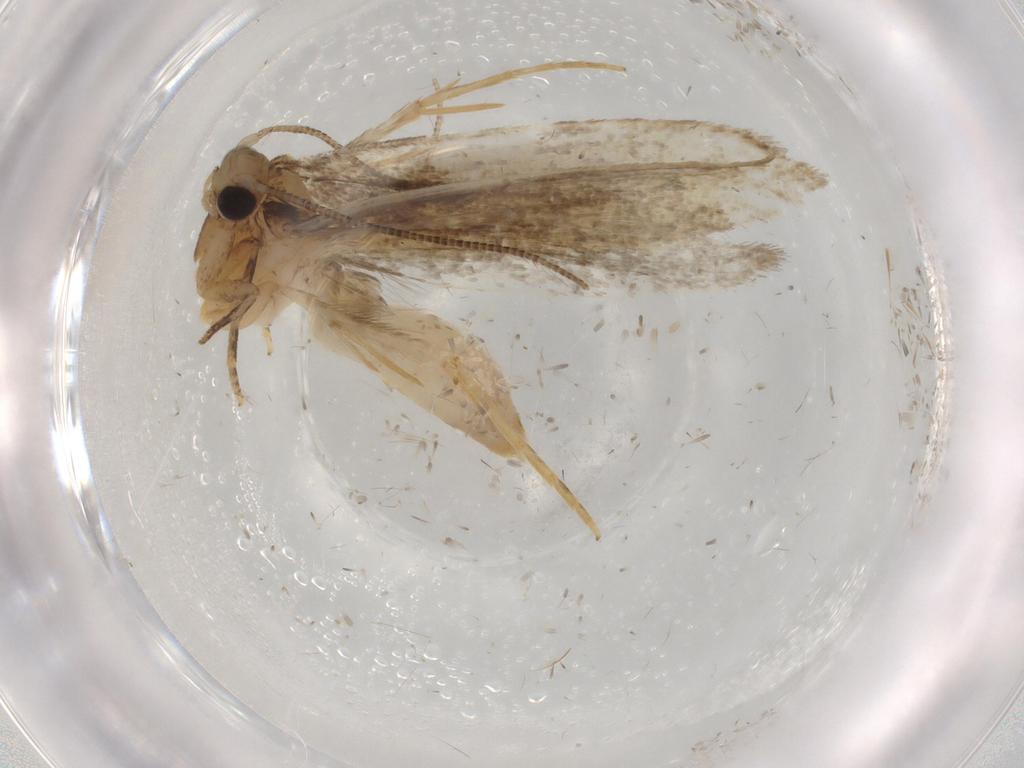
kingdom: Animalia
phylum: Arthropoda
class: Insecta
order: Lepidoptera
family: Tineidae
